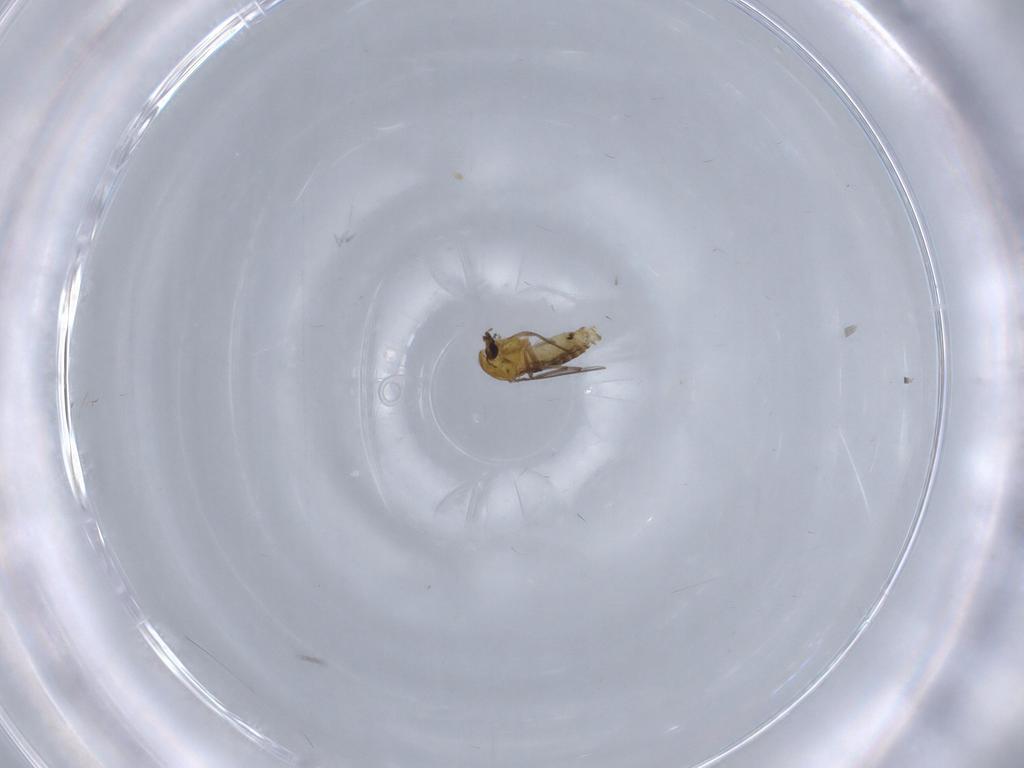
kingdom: Animalia
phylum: Arthropoda
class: Insecta
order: Diptera
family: Chironomidae
